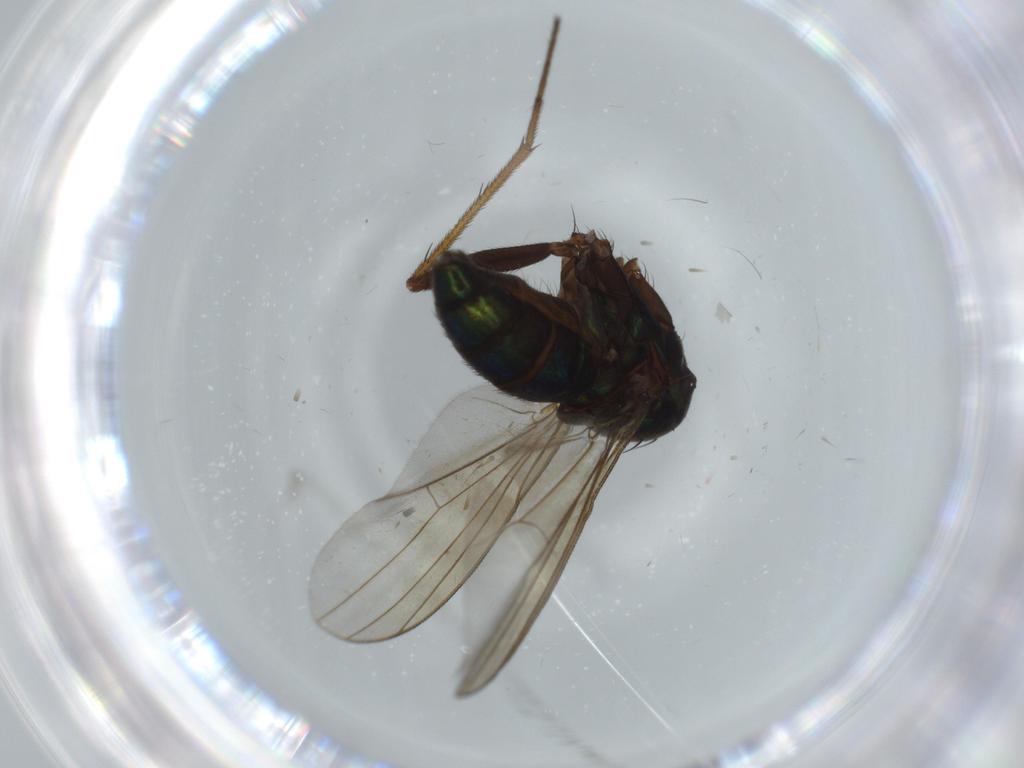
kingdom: Animalia
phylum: Arthropoda
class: Insecta
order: Diptera
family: Dolichopodidae
